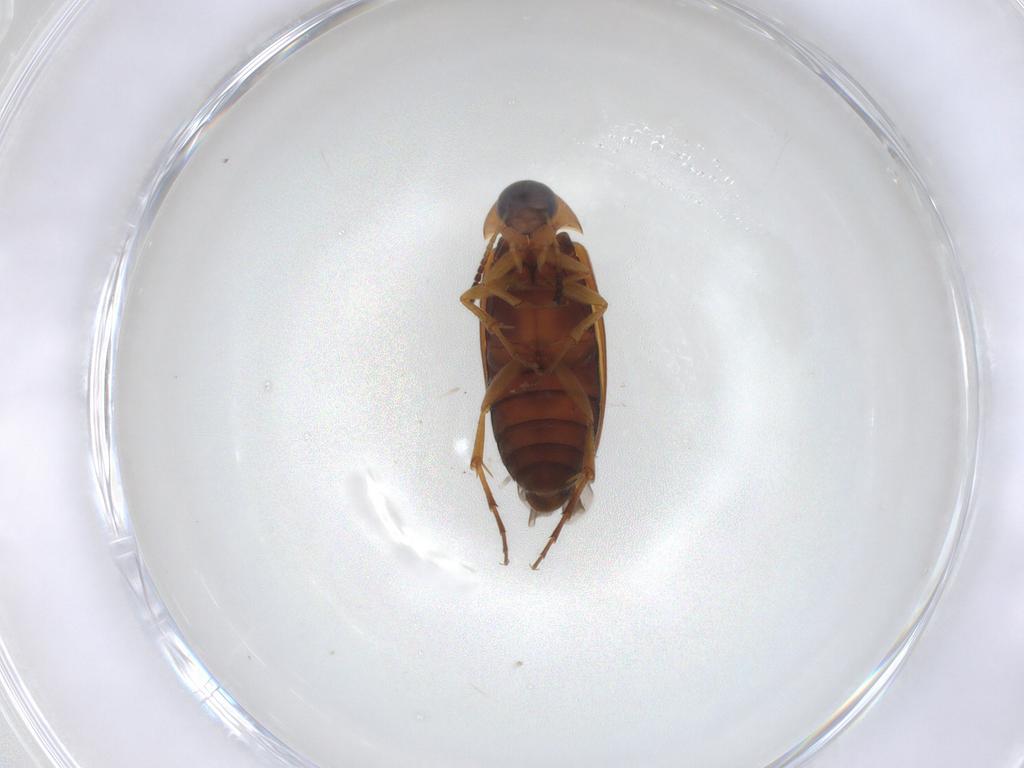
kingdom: Animalia
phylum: Arthropoda
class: Insecta
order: Coleoptera
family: Scraptiidae
